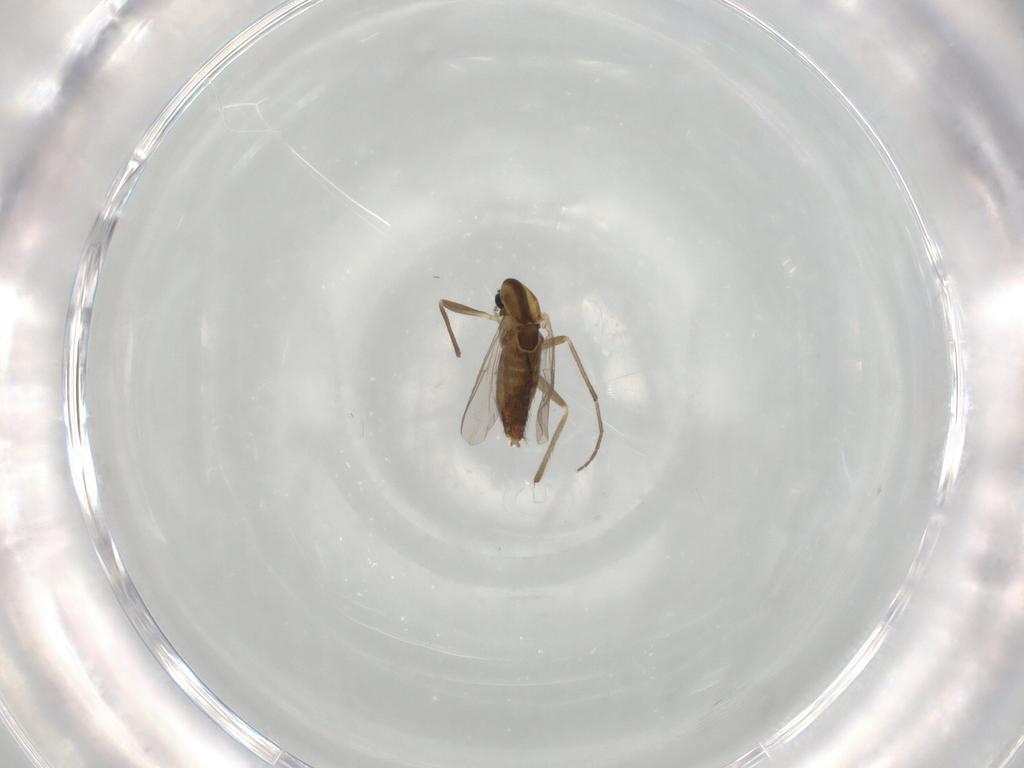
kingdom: Animalia
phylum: Arthropoda
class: Insecta
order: Diptera
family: Chironomidae
